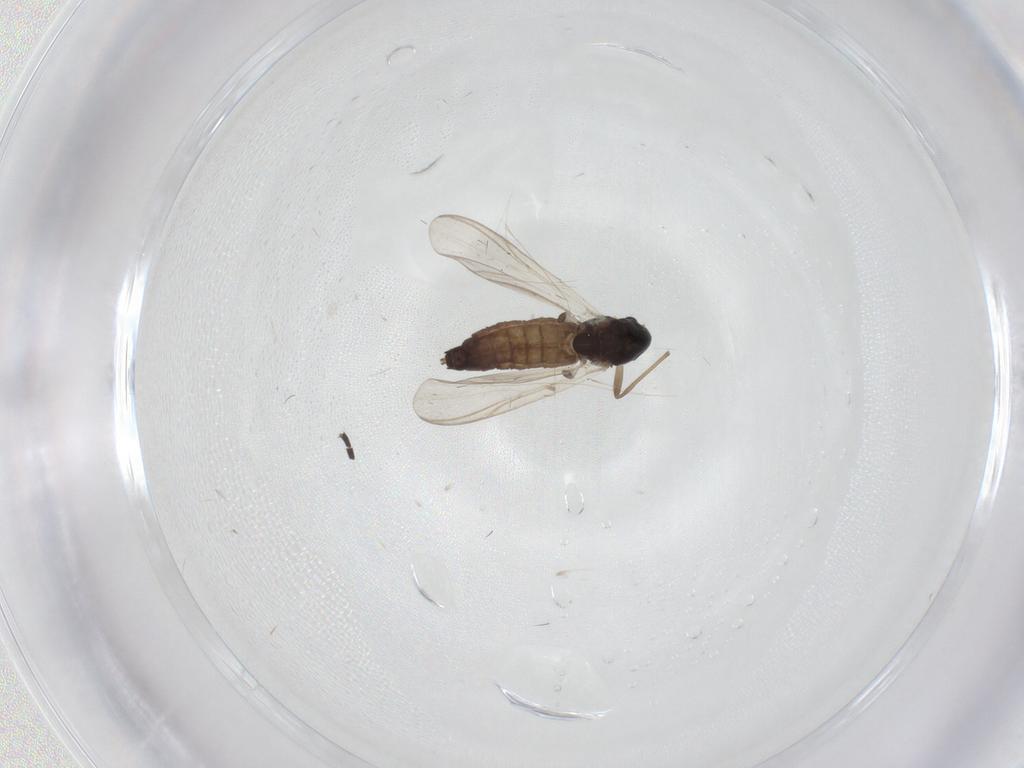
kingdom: Animalia
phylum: Arthropoda
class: Insecta
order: Diptera
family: Chironomidae
